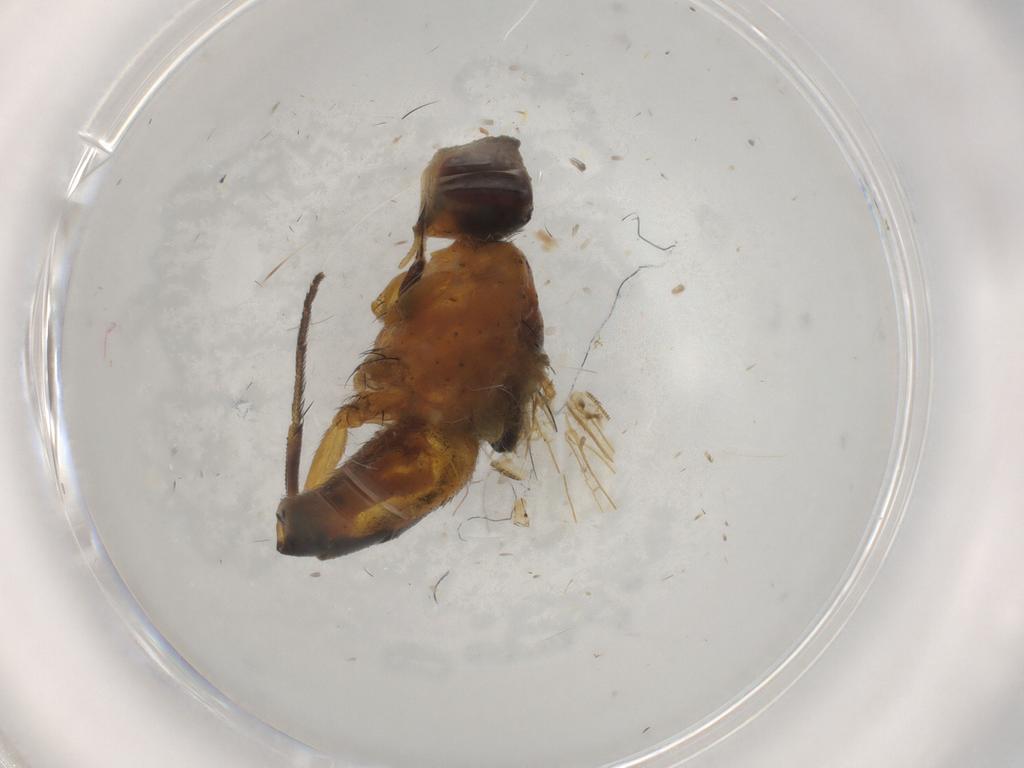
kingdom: Animalia
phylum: Arthropoda
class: Insecta
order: Diptera
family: Muscidae
